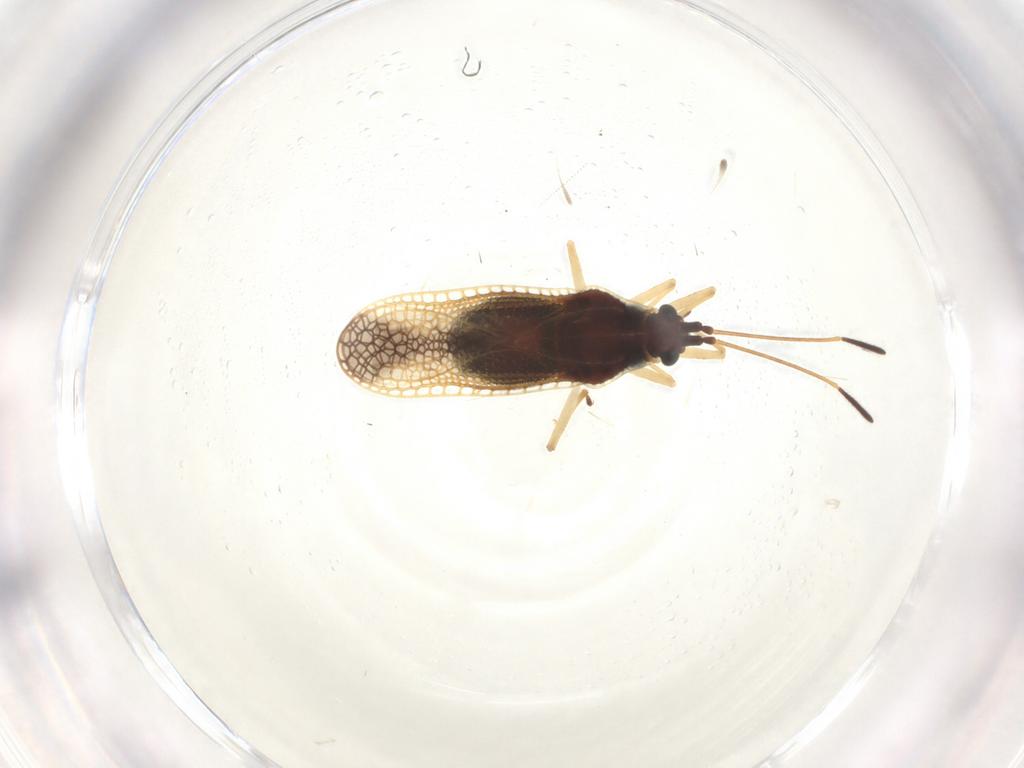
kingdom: Animalia
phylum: Arthropoda
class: Insecta
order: Hemiptera
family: Tingidae
